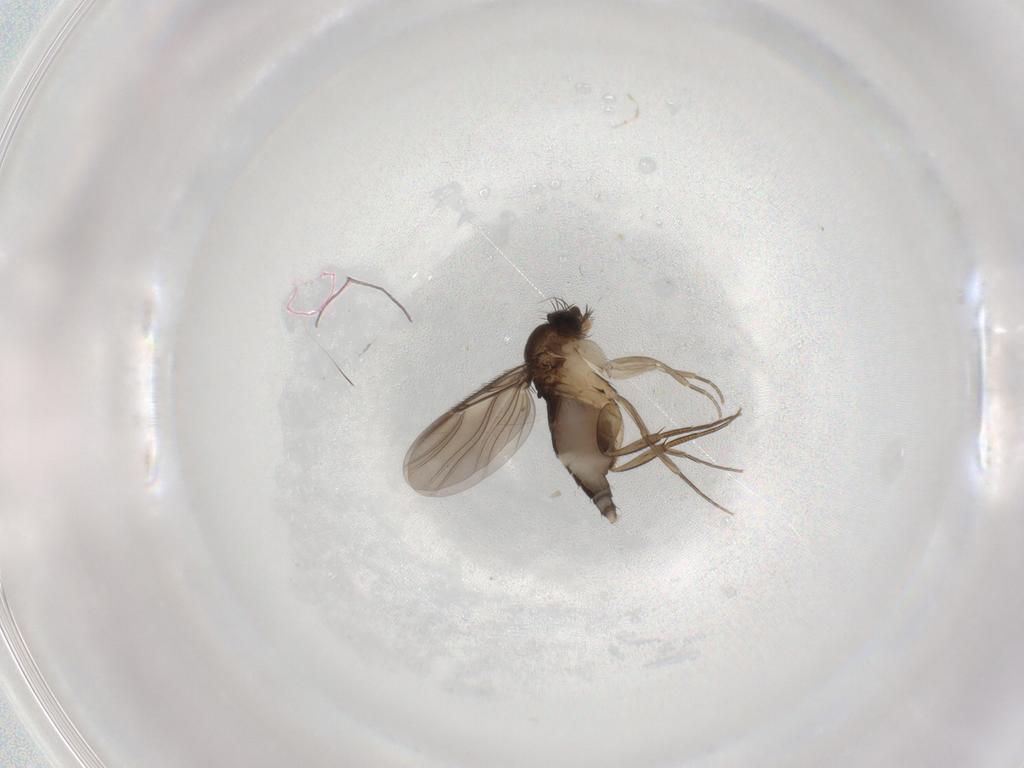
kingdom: Animalia
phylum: Arthropoda
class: Insecta
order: Diptera
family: Phoridae
